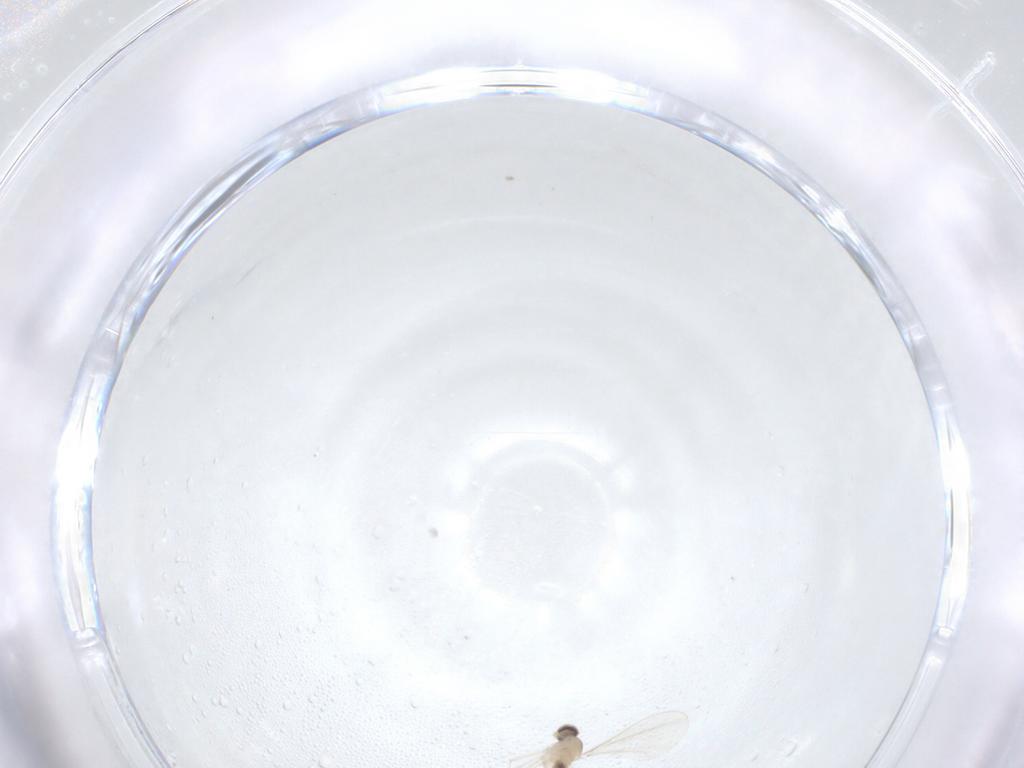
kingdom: Animalia
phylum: Arthropoda
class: Insecta
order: Diptera
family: Cecidomyiidae
